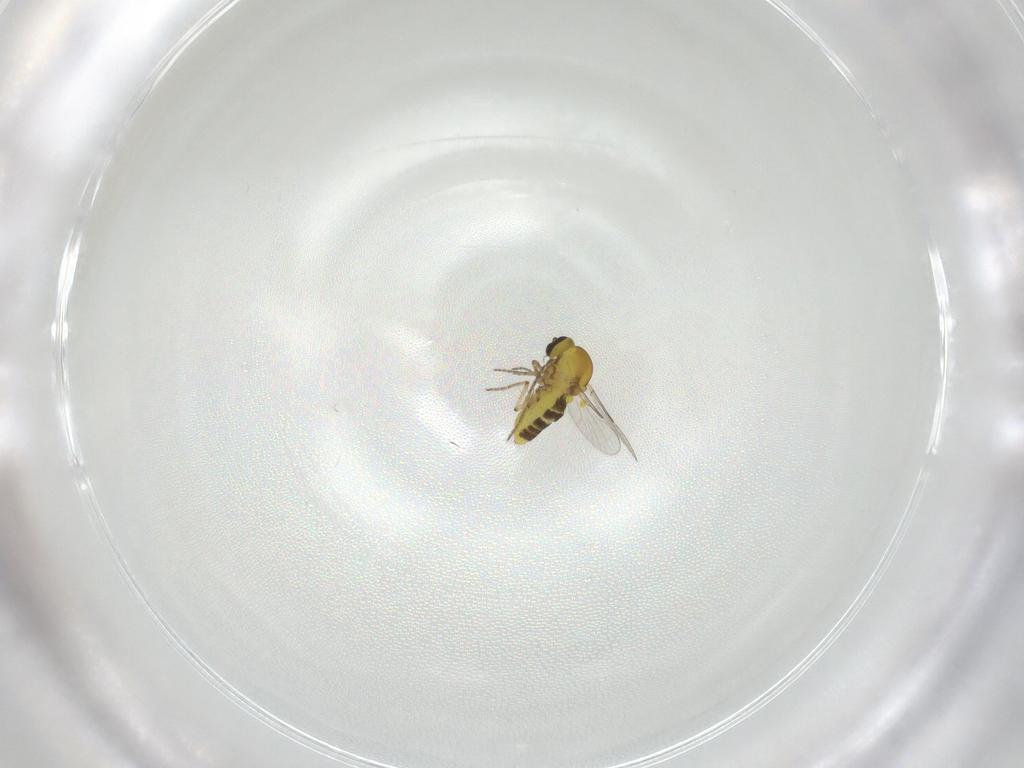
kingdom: Animalia
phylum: Arthropoda
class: Insecta
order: Diptera
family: Ceratopogonidae
